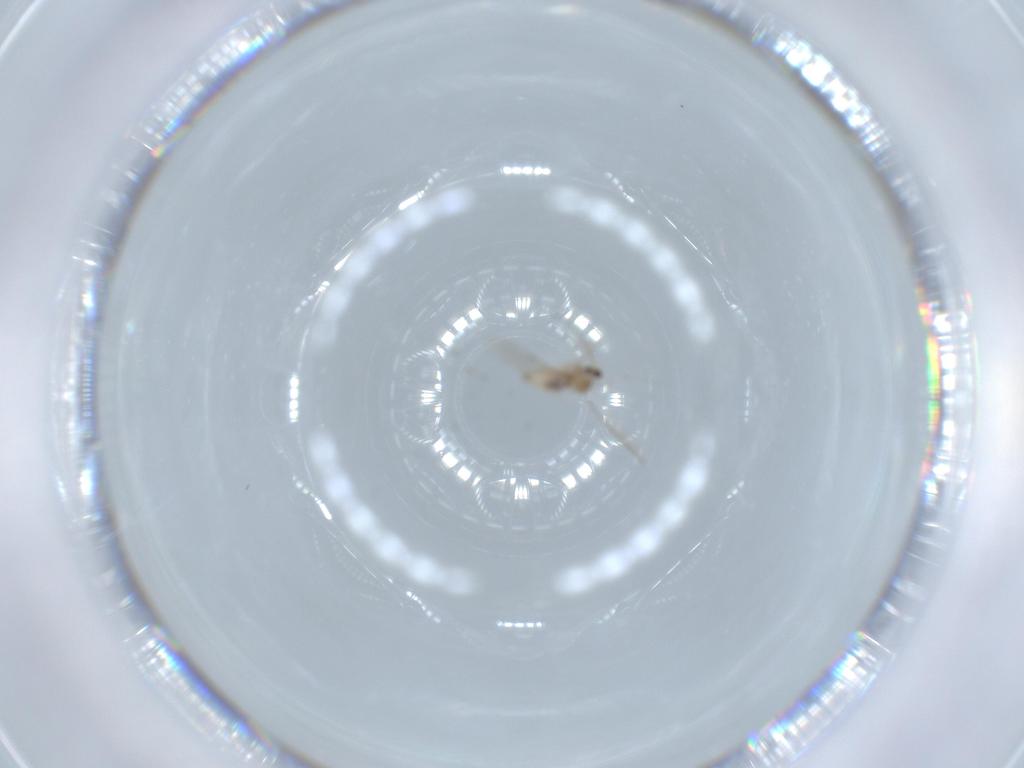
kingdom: Animalia
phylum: Arthropoda
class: Insecta
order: Diptera
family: Cecidomyiidae
